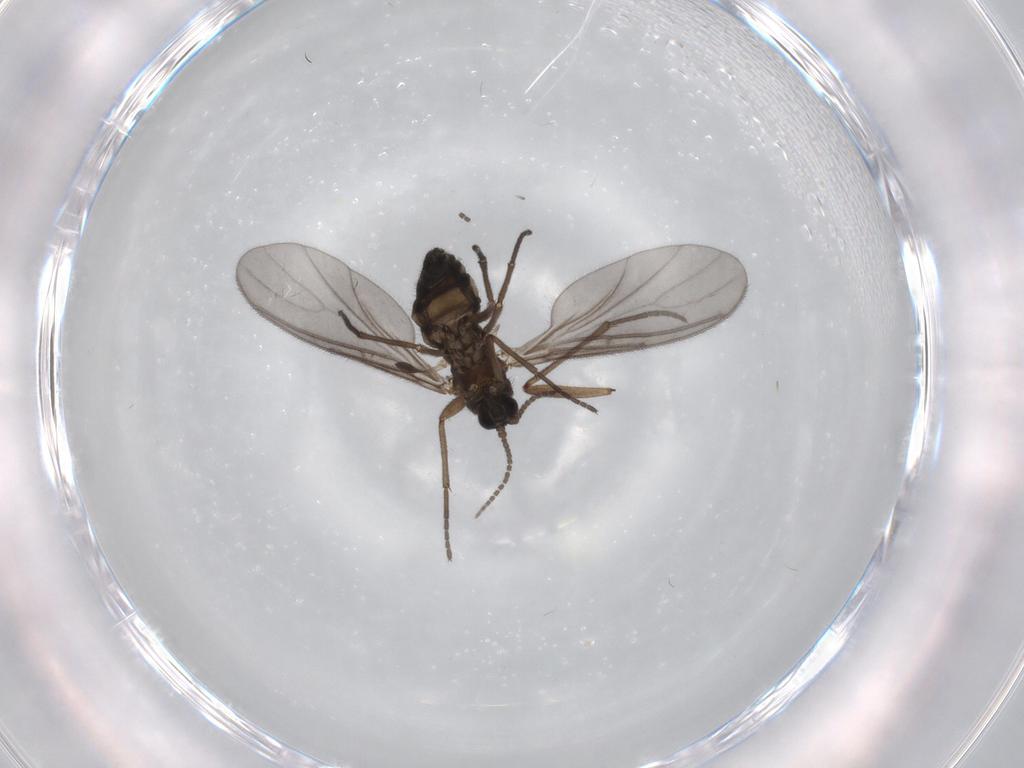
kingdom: Animalia
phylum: Arthropoda
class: Insecta
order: Diptera
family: Sciaridae
